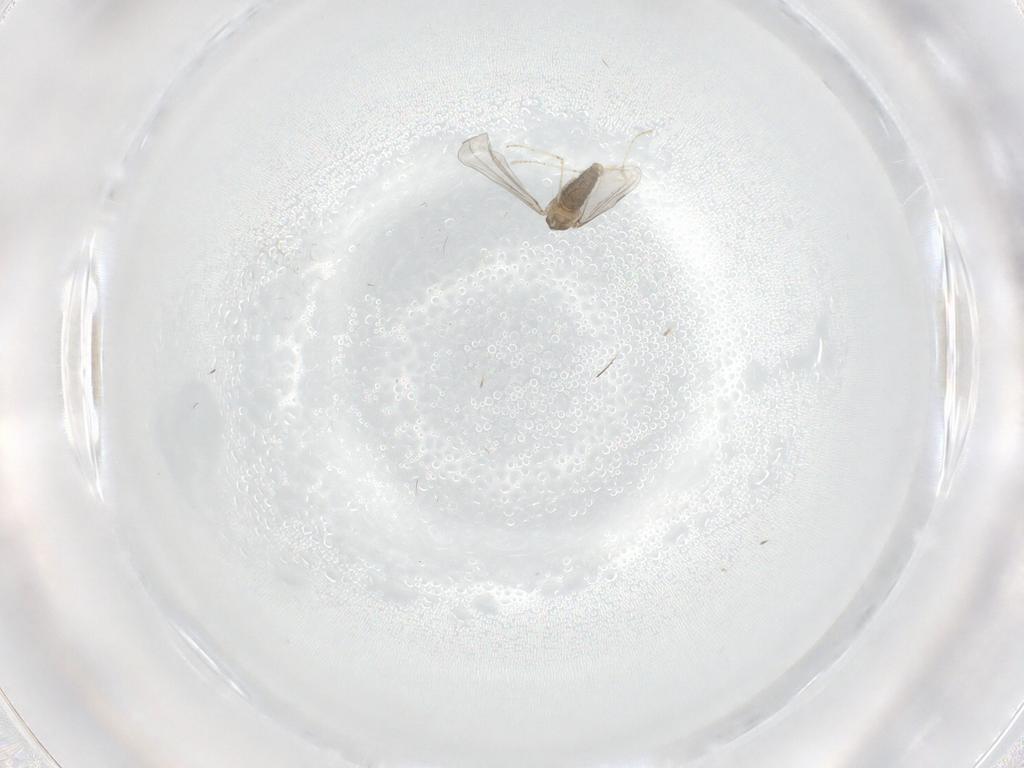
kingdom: Animalia
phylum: Arthropoda
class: Insecta
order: Diptera
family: Cecidomyiidae
